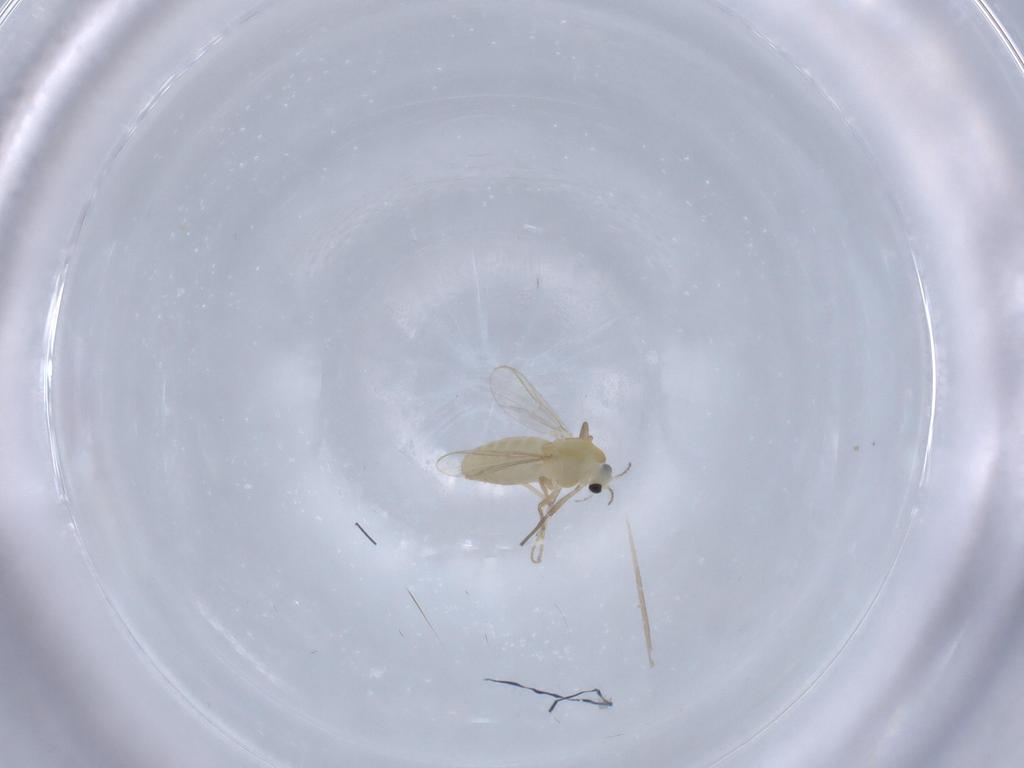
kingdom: Animalia
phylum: Arthropoda
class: Insecta
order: Diptera
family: Chironomidae
